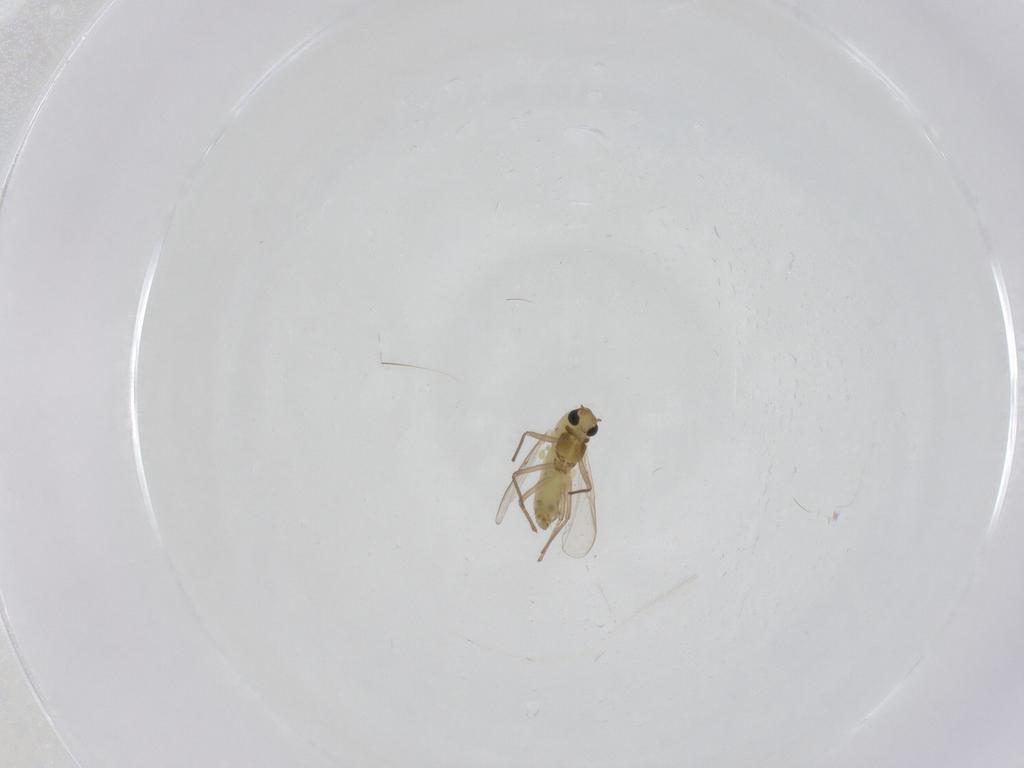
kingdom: Animalia
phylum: Arthropoda
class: Insecta
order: Diptera
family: Chironomidae
